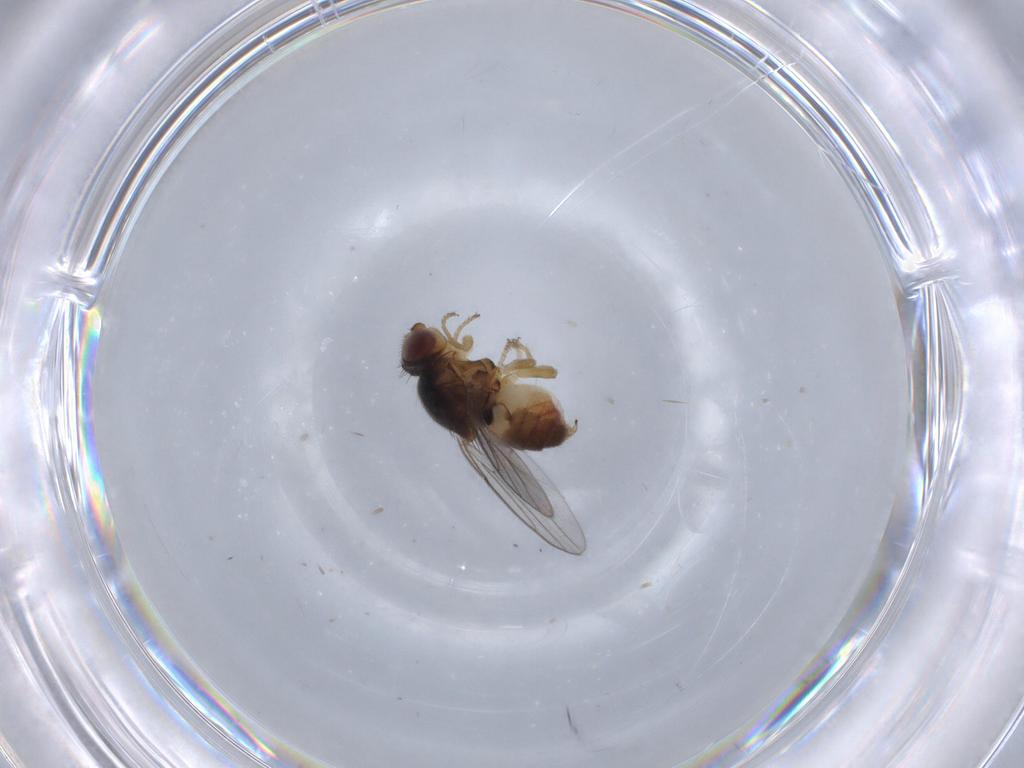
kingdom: Animalia
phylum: Arthropoda
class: Insecta
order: Diptera
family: Chloropidae
